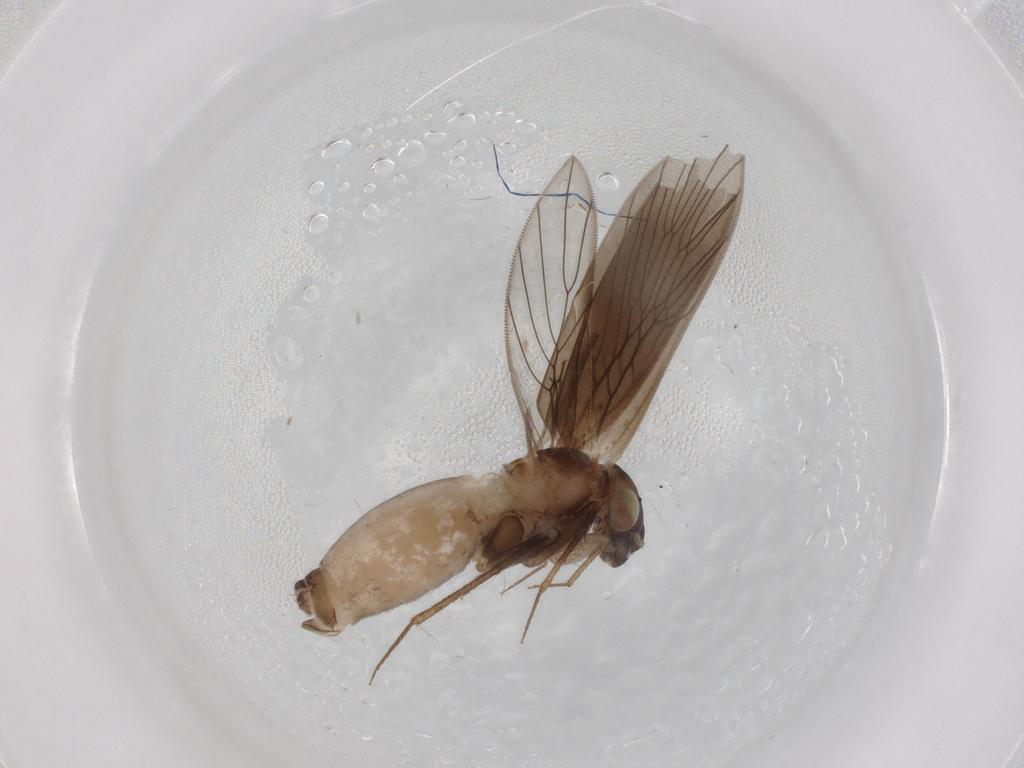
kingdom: Animalia
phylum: Arthropoda
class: Insecta
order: Psocodea
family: Lepidopsocidae
